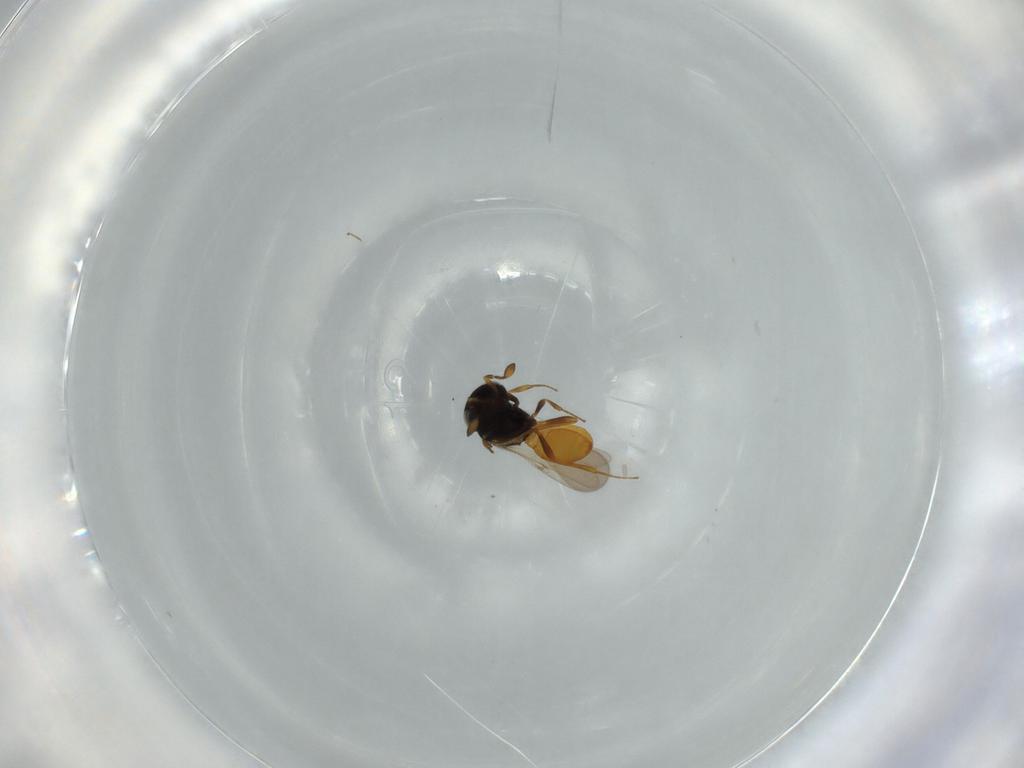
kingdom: Animalia
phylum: Arthropoda
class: Insecta
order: Hymenoptera
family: Scelionidae
